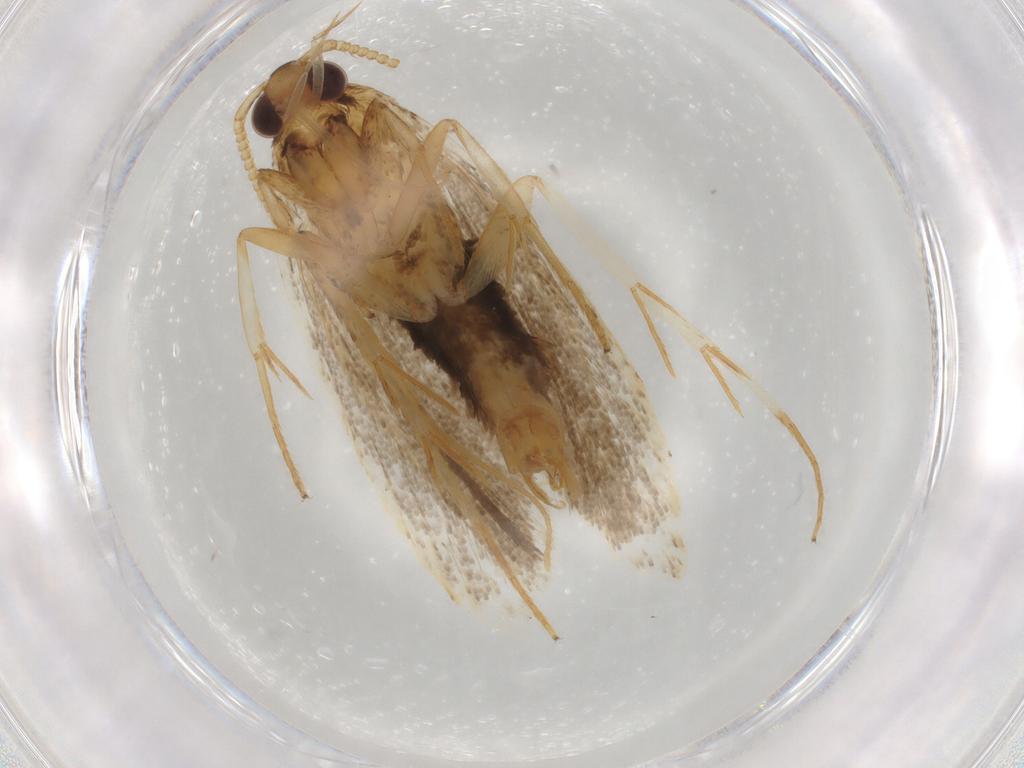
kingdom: Animalia
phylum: Arthropoda
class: Insecta
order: Lepidoptera
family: Lecithoceridae
